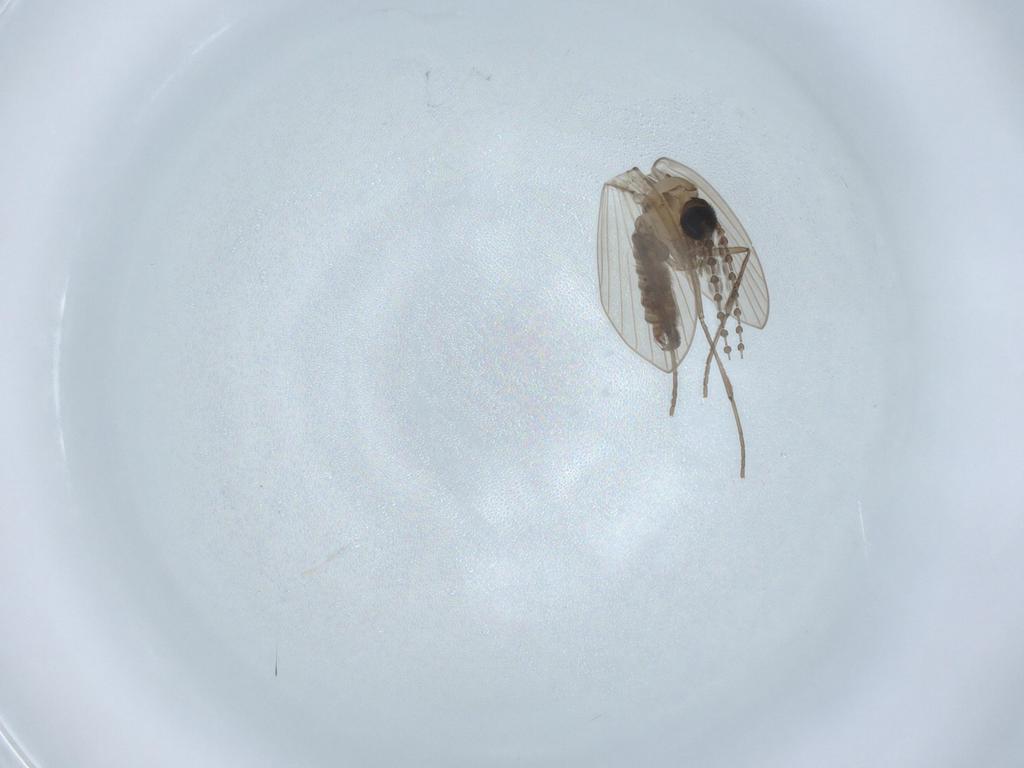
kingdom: Animalia
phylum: Arthropoda
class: Insecta
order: Diptera
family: Psychodidae
